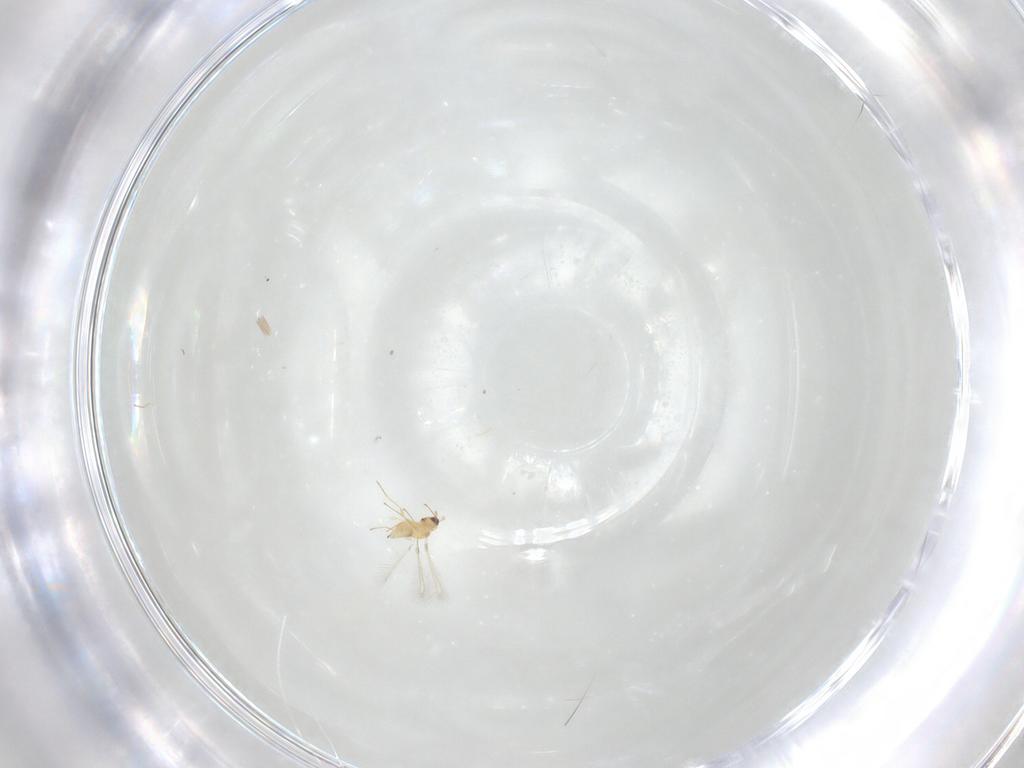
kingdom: Animalia
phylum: Arthropoda
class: Insecta
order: Hymenoptera
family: Mymaridae
